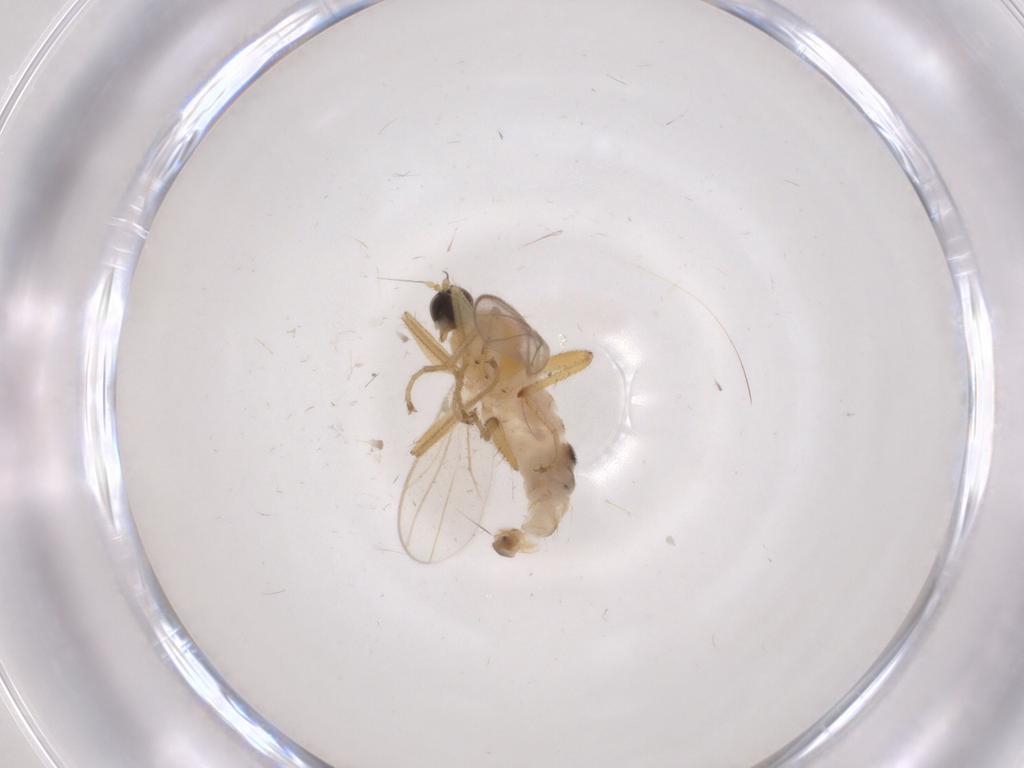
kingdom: Animalia
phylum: Arthropoda
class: Insecta
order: Diptera
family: Hybotidae
